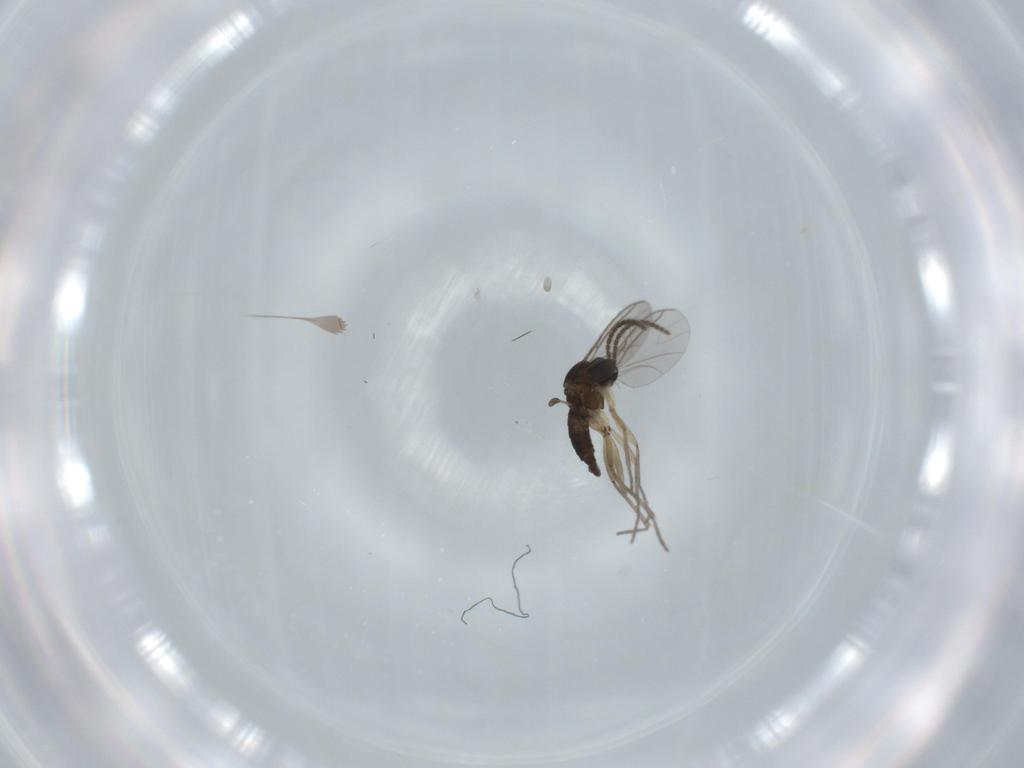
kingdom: Animalia
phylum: Arthropoda
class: Insecta
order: Diptera
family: Sciaridae
